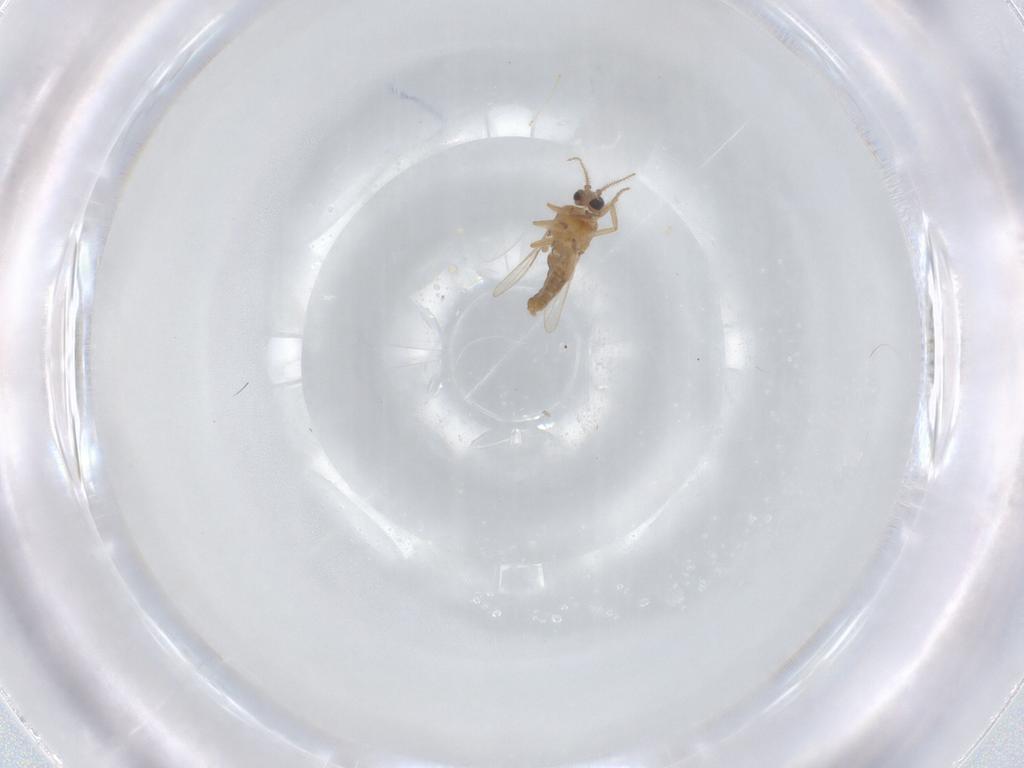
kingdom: Animalia
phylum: Arthropoda
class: Insecta
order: Diptera
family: Ceratopogonidae
